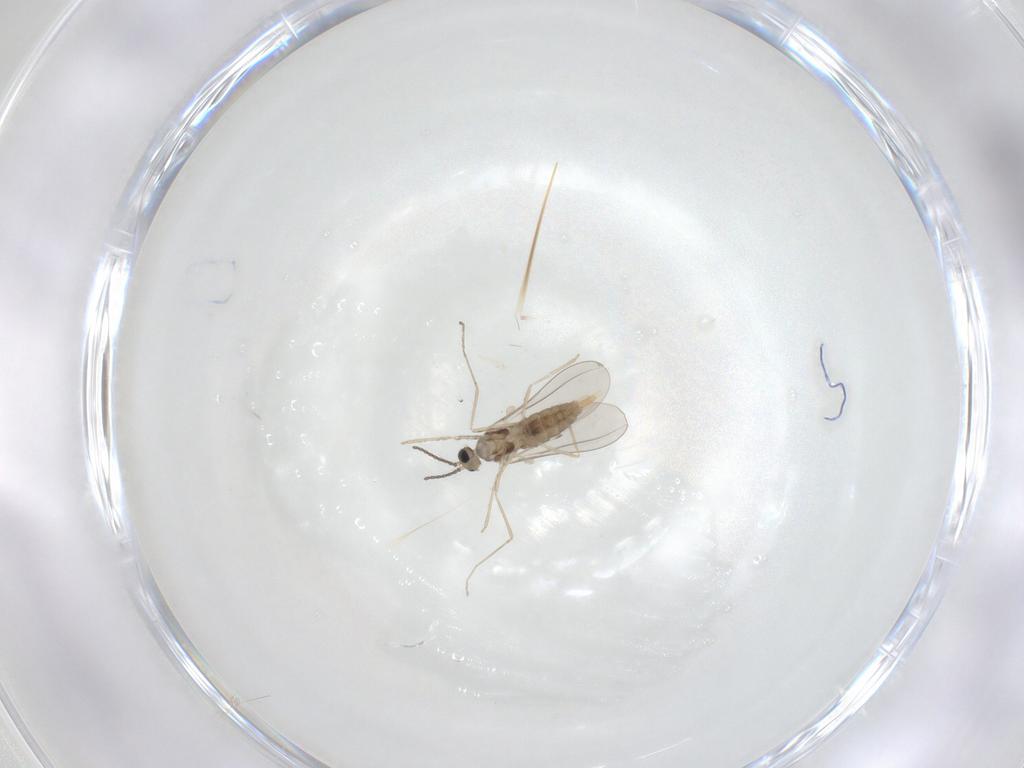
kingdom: Animalia
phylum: Arthropoda
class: Insecta
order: Diptera
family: Cecidomyiidae
